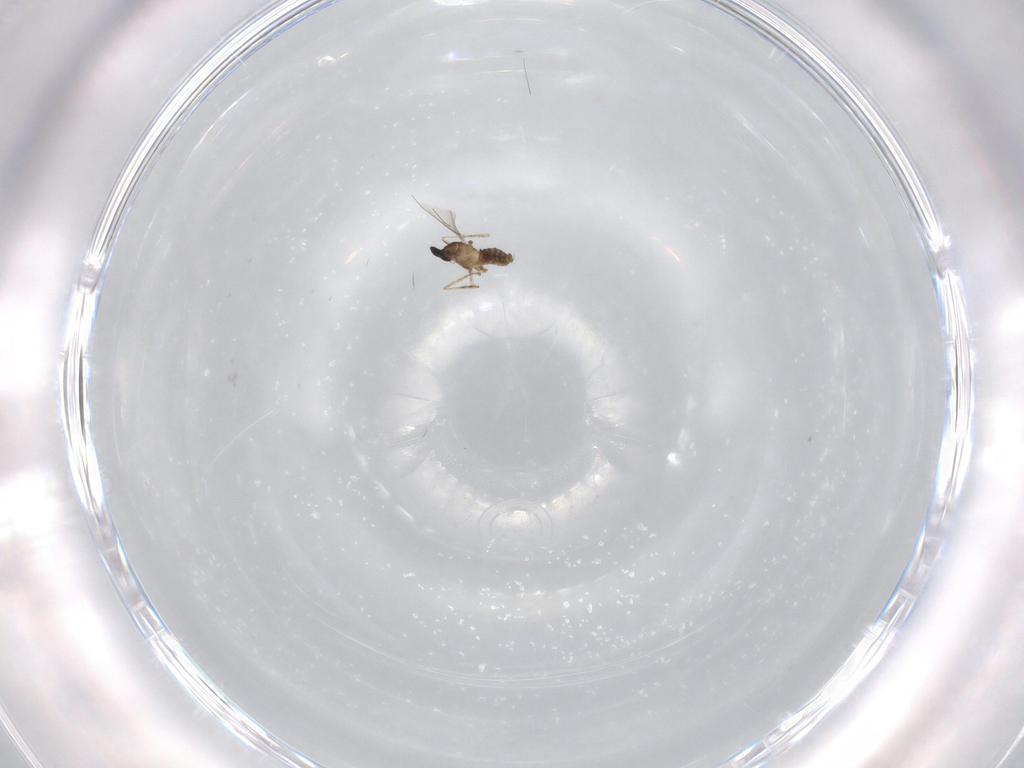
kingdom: Animalia
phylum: Arthropoda
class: Insecta
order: Diptera
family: Cecidomyiidae
